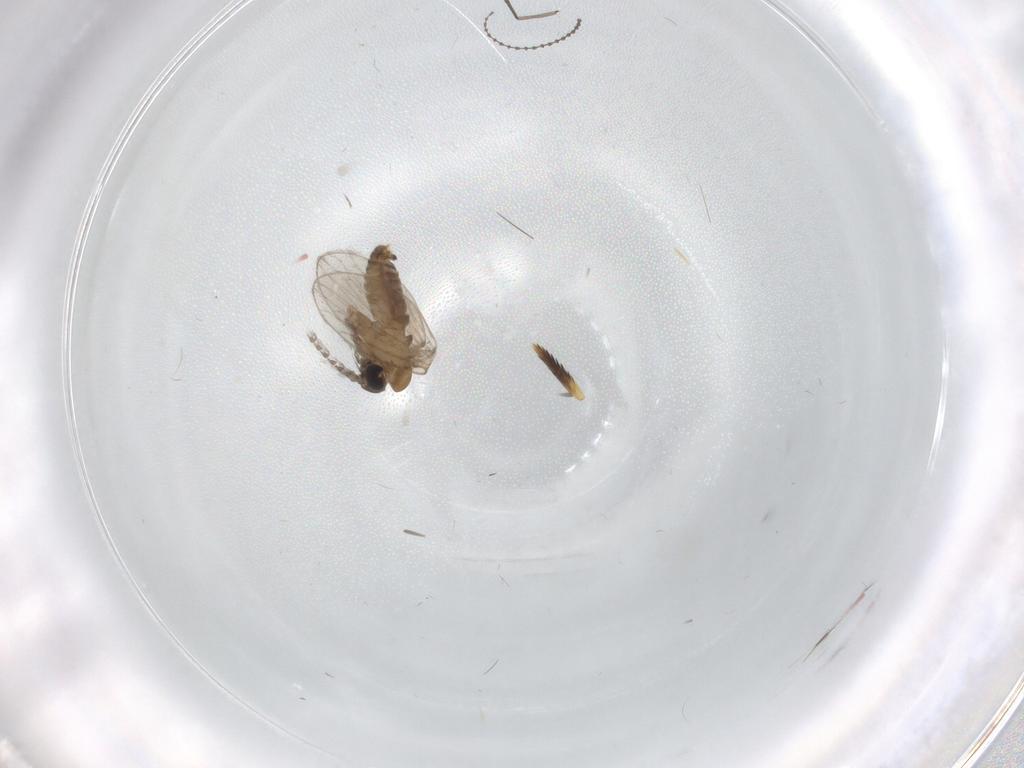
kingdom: Animalia
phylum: Arthropoda
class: Insecta
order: Diptera
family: Cecidomyiidae
